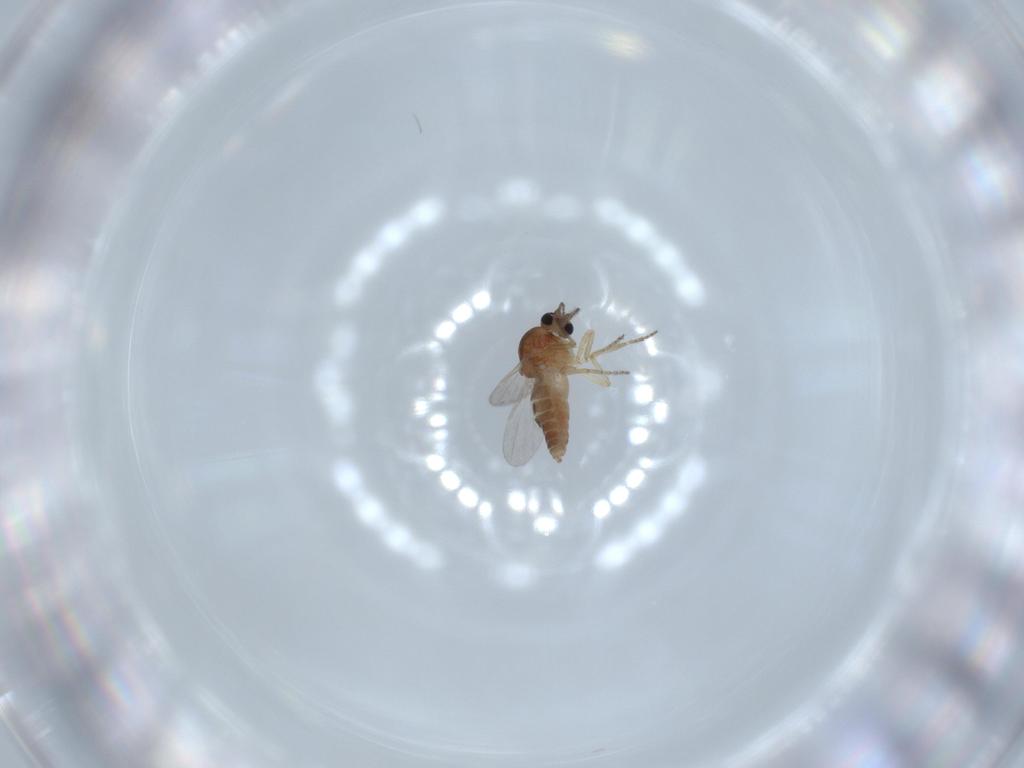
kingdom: Animalia
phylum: Arthropoda
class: Insecta
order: Diptera
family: Ceratopogonidae
